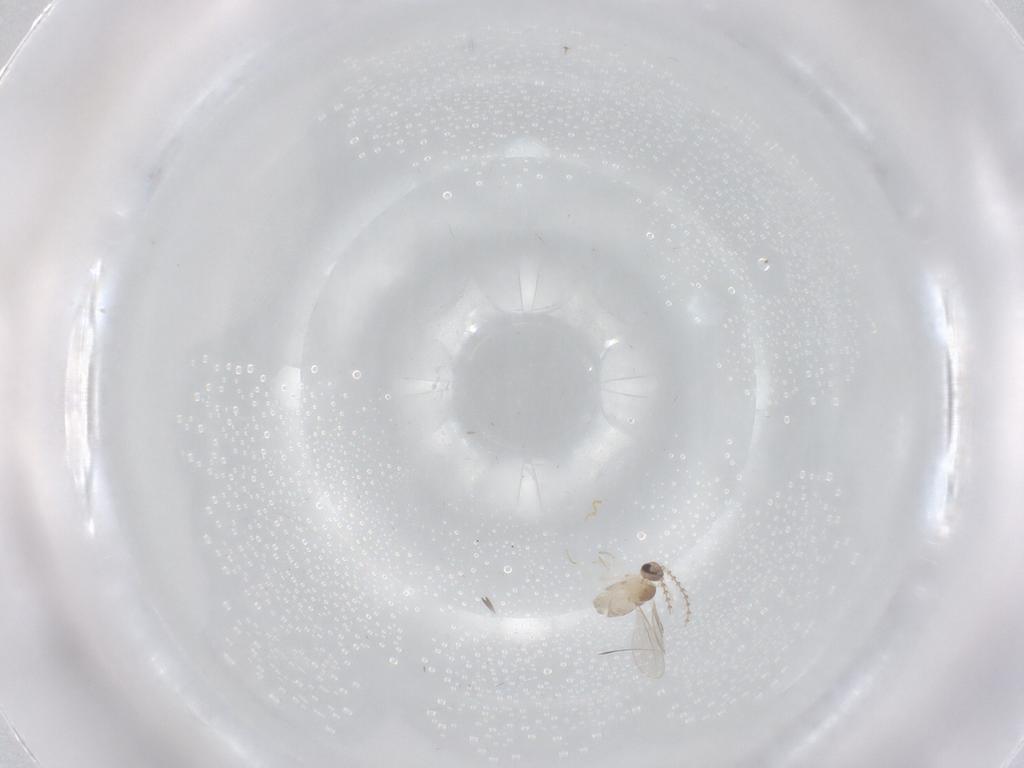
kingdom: Animalia
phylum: Arthropoda
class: Insecta
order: Diptera
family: Cecidomyiidae
